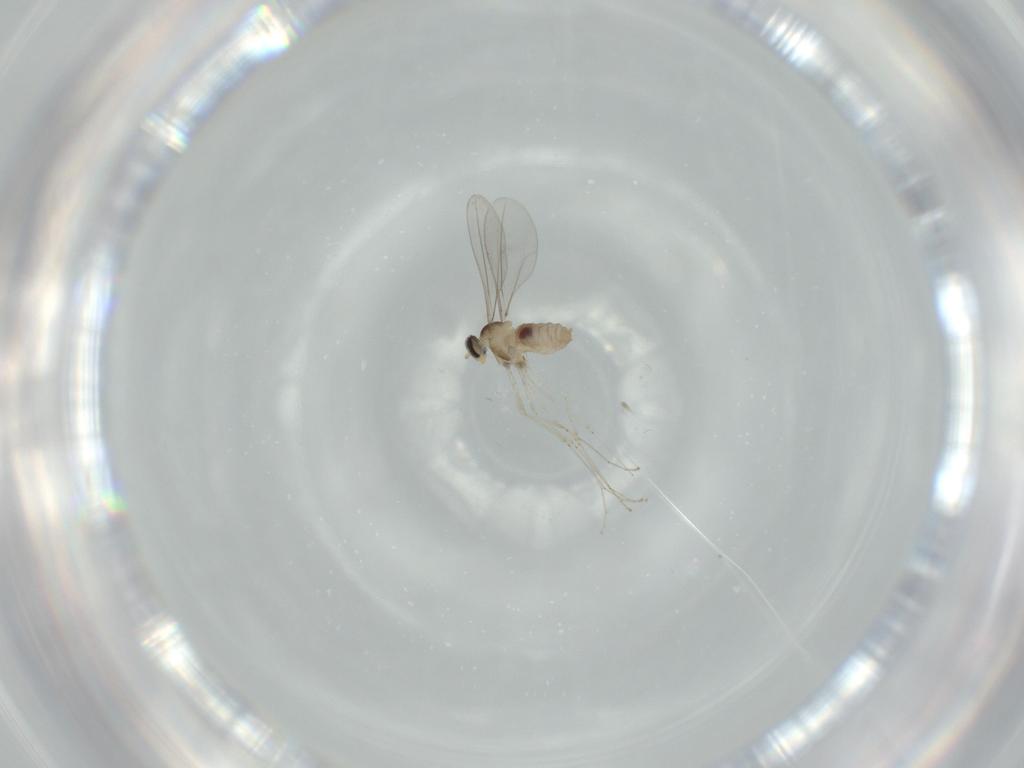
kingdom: Animalia
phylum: Arthropoda
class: Insecta
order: Diptera
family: Cecidomyiidae
